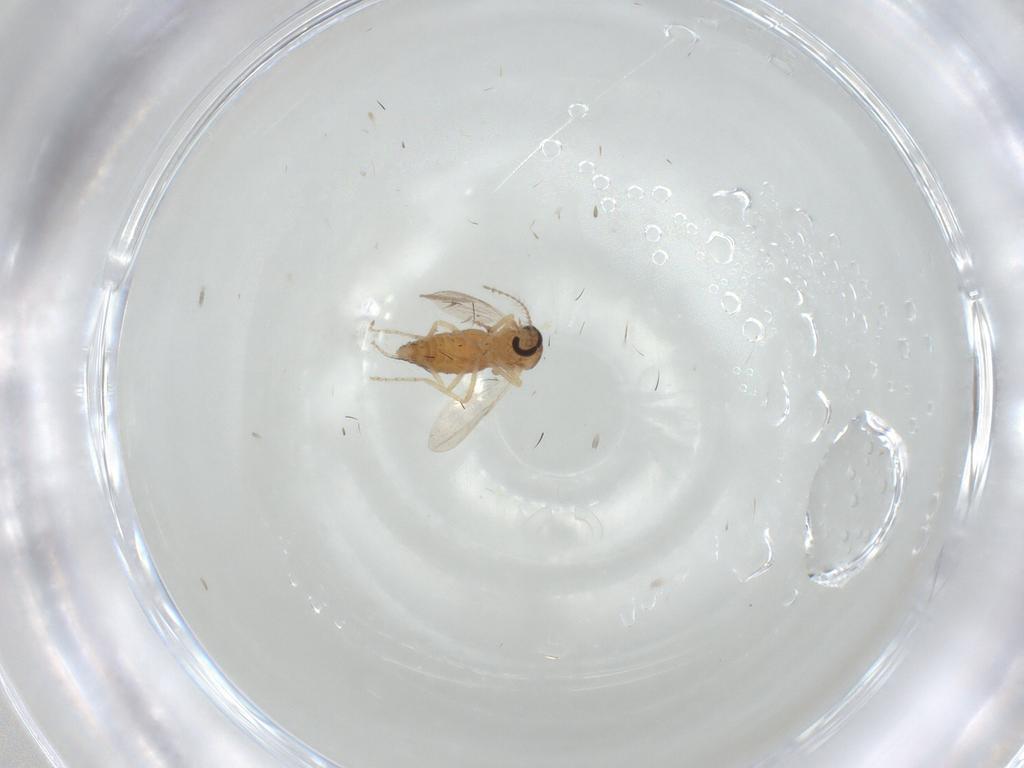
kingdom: Animalia
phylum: Arthropoda
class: Insecta
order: Diptera
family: Ceratopogonidae
